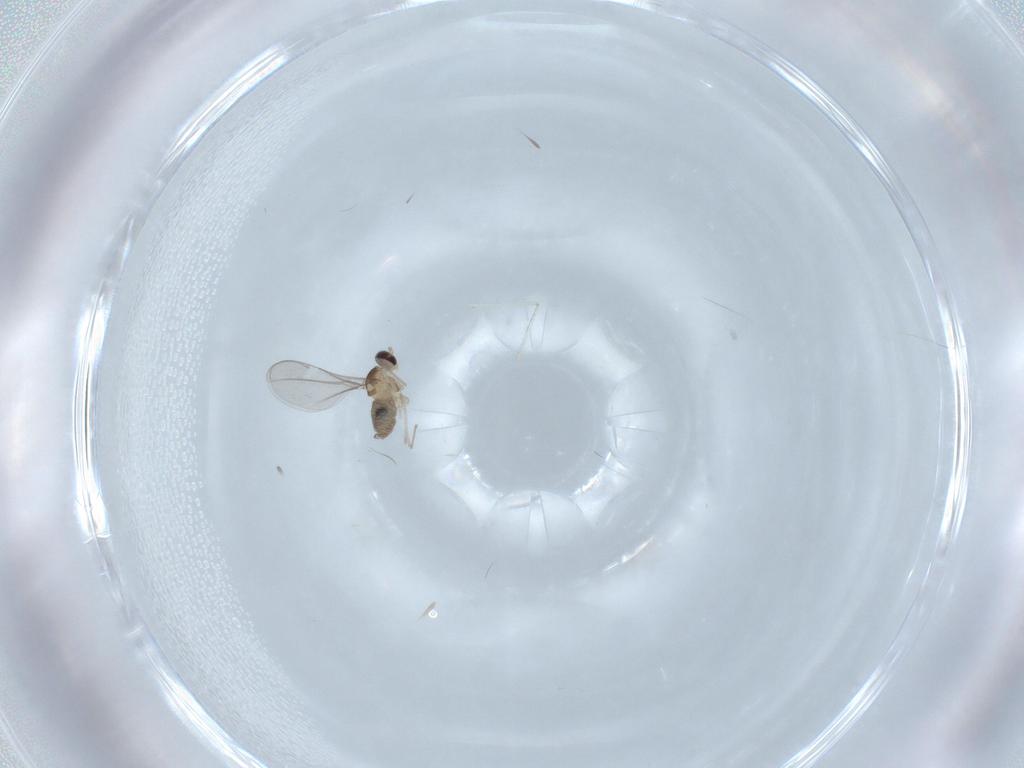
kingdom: Animalia
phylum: Arthropoda
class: Insecta
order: Diptera
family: Cecidomyiidae
